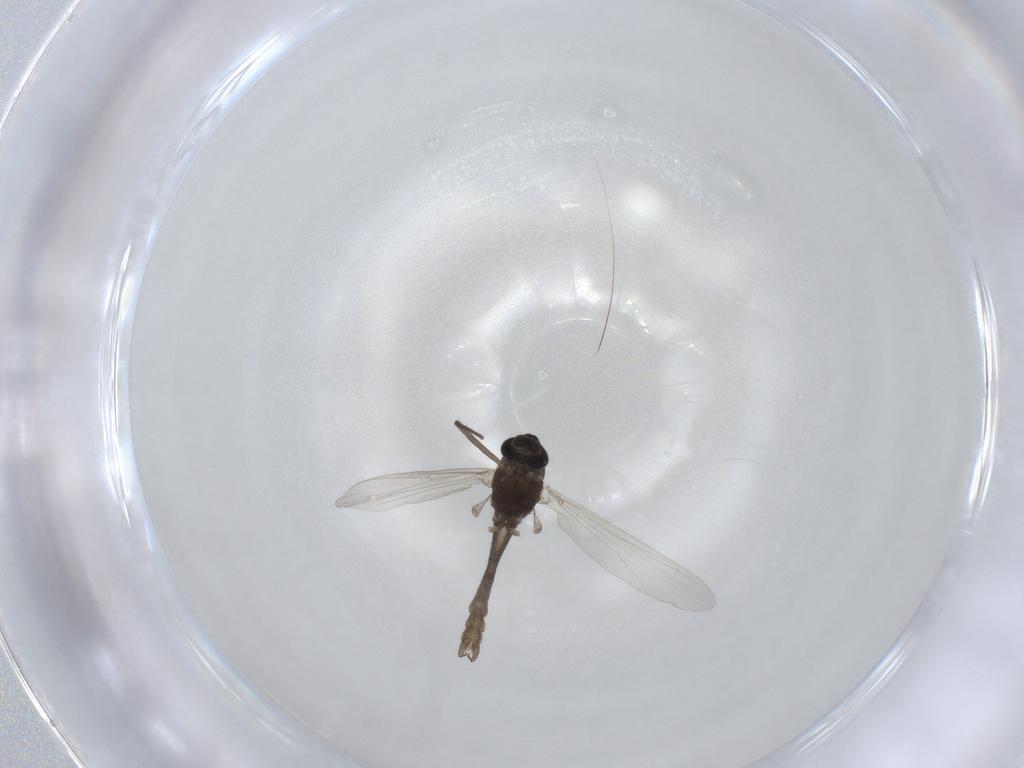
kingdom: Animalia
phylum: Arthropoda
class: Insecta
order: Diptera
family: Chironomidae
